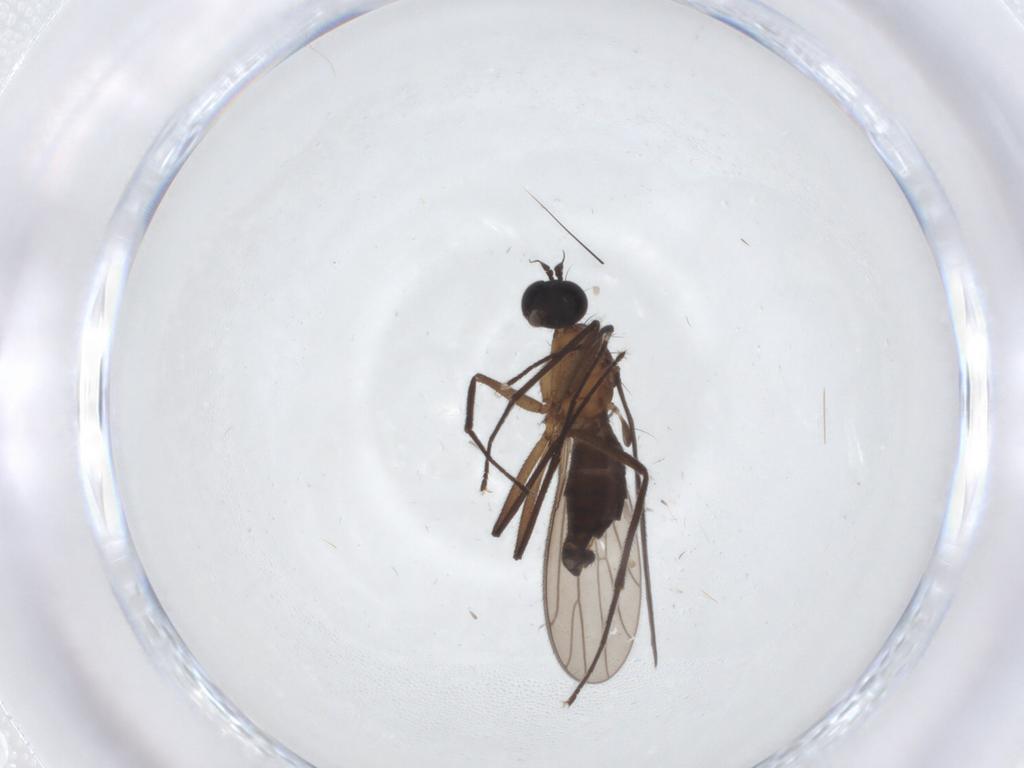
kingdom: Animalia
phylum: Arthropoda
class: Insecta
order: Diptera
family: Empididae
